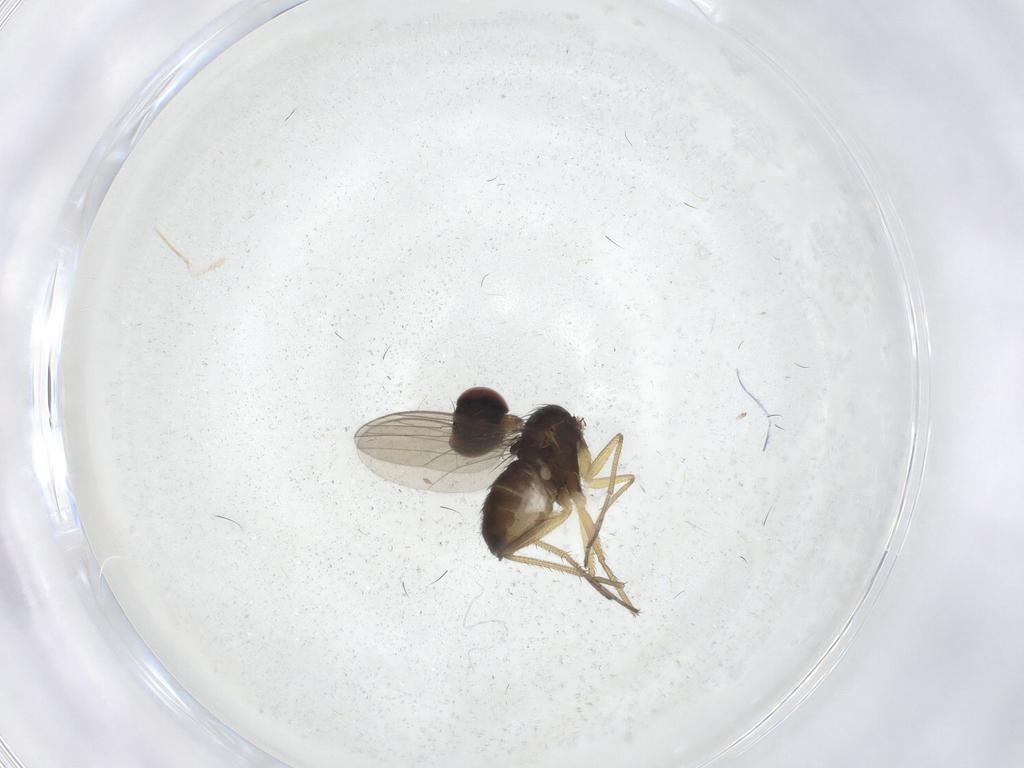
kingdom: Animalia
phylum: Arthropoda
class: Insecta
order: Diptera
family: Dolichopodidae
